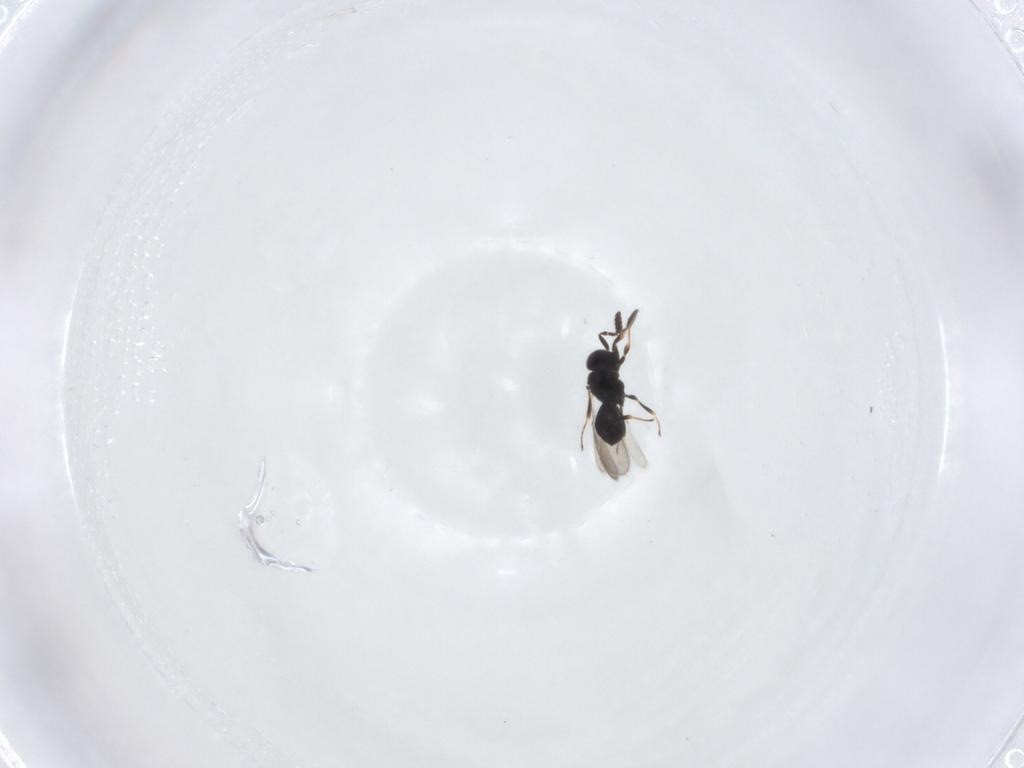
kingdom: Animalia
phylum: Arthropoda
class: Insecta
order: Hymenoptera
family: Scelionidae
